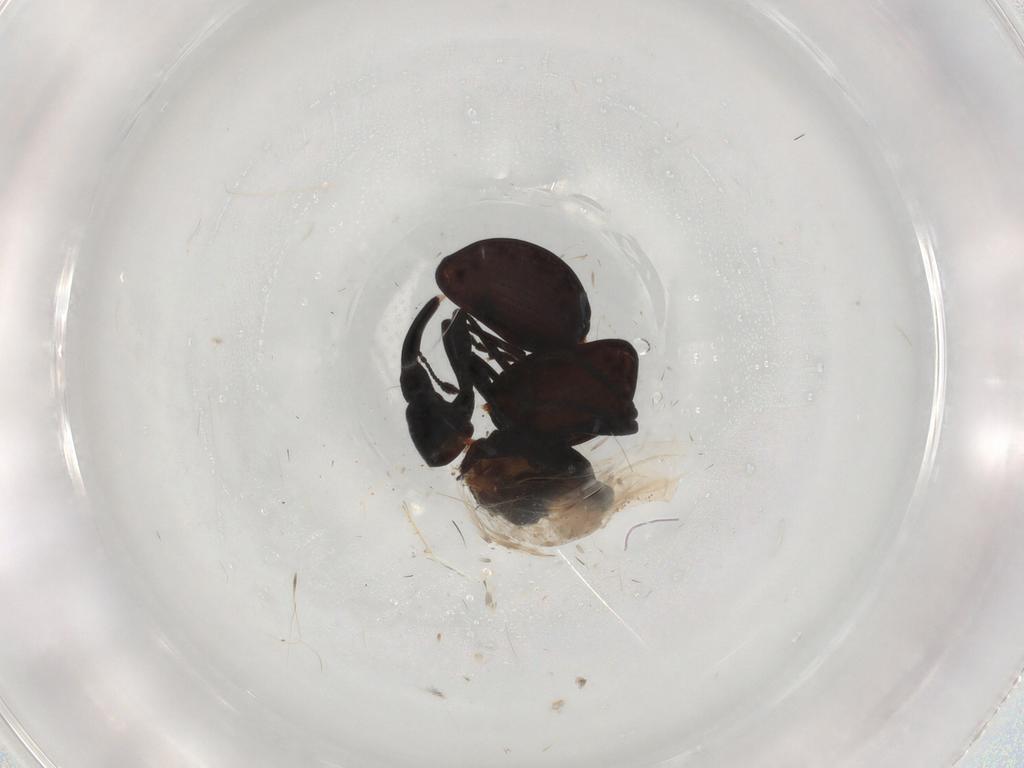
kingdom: Animalia
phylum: Arthropoda
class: Insecta
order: Coleoptera
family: Apionidae
